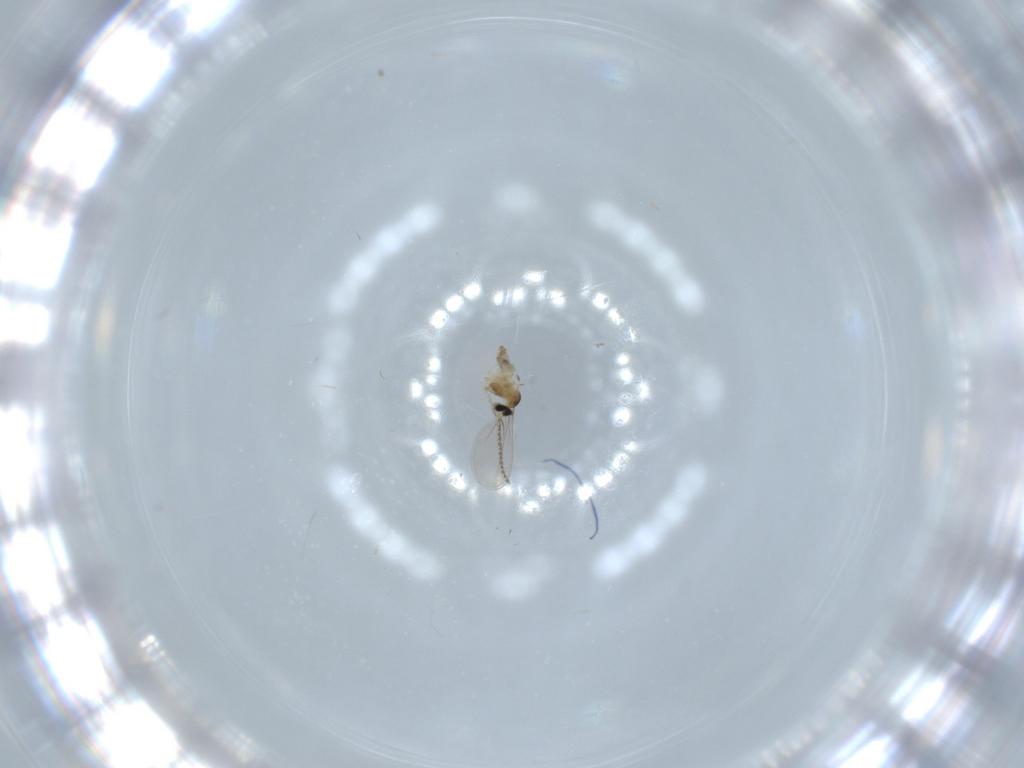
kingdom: Animalia
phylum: Arthropoda
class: Insecta
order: Diptera
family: Cecidomyiidae
